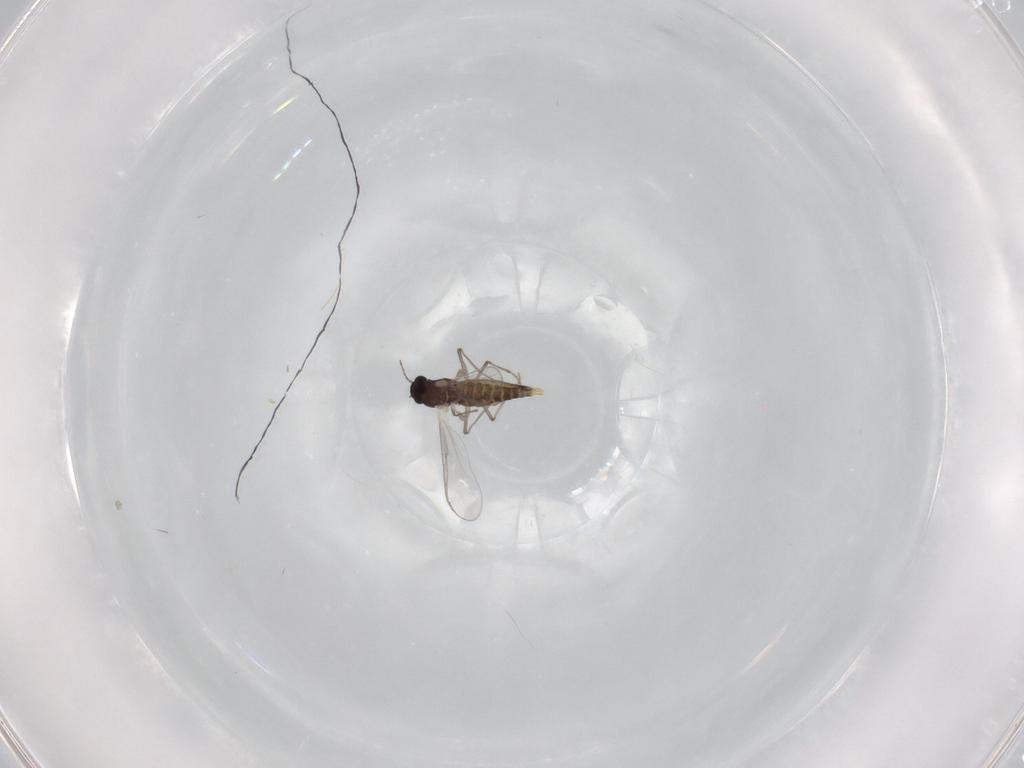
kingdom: Animalia
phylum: Arthropoda
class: Insecta
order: Diptera
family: Chironomidae
